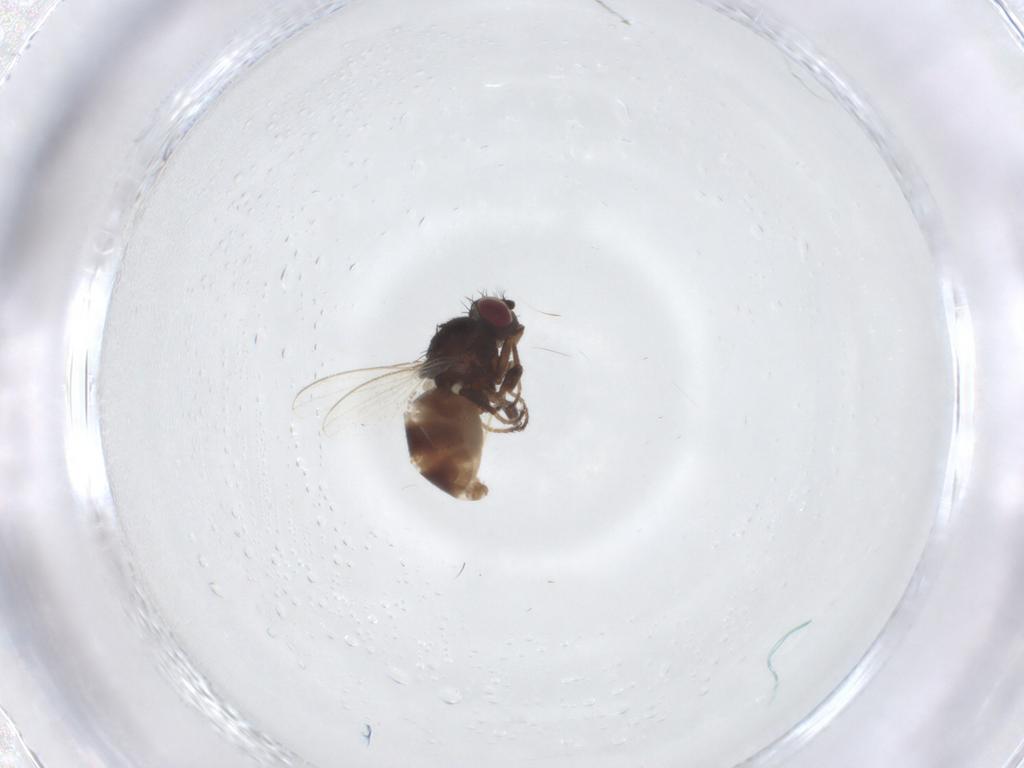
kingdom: Animalia
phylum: Arthropoda
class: Insecta
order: Diptera
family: Ephydridae
